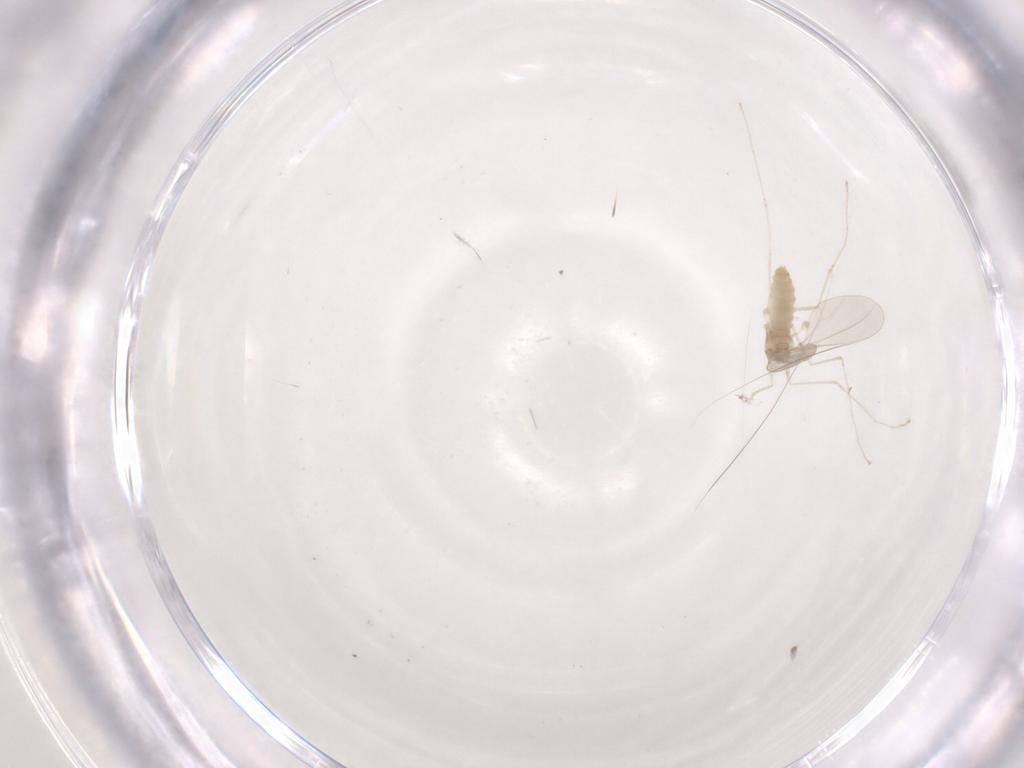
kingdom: Animalia
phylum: Arthropoda
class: Insecta
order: Diptera
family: Cecidomyiidae
